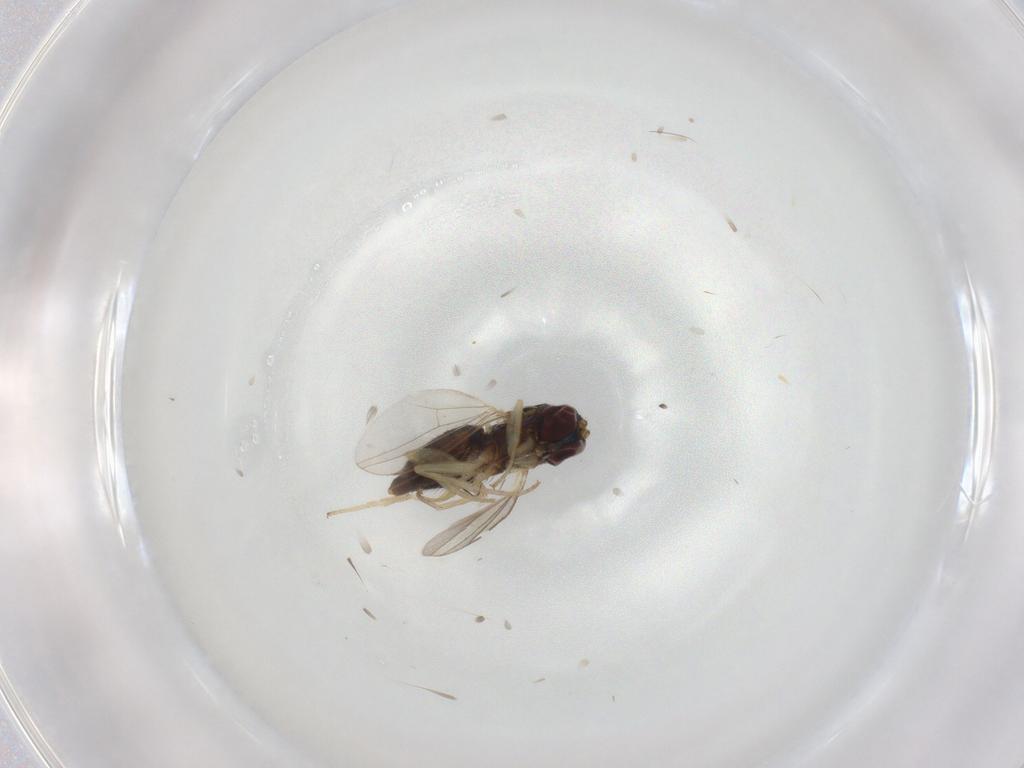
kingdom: Animalia
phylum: Arthropoda
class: Insecta
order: Diptera
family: Dolichopodidae
